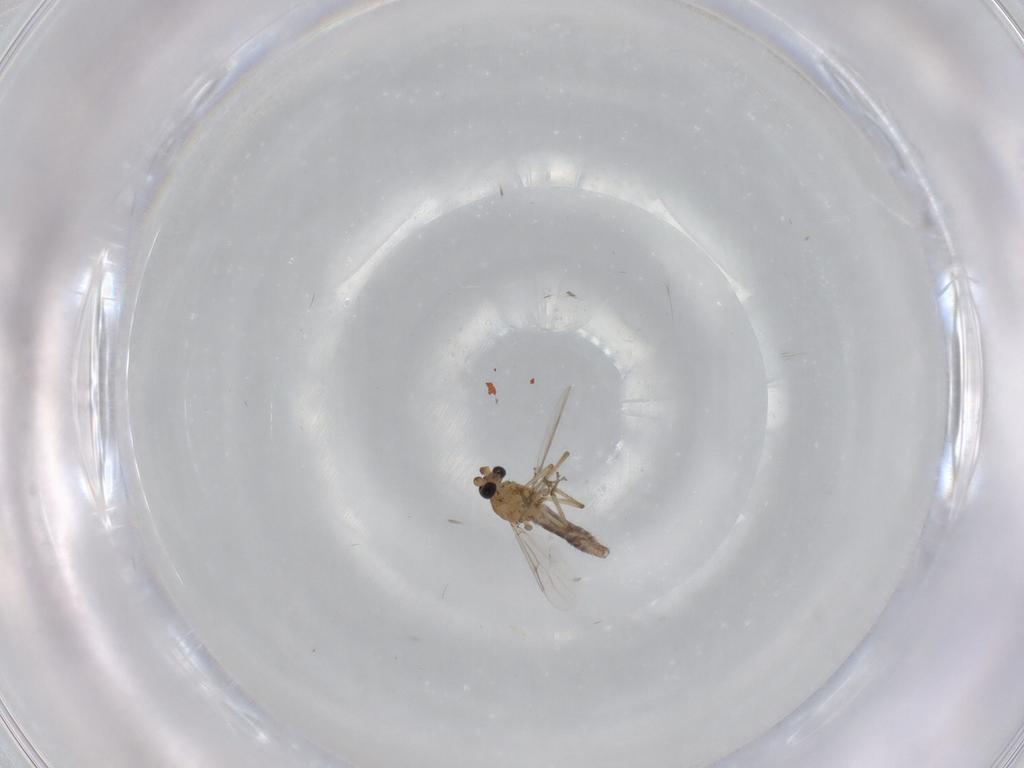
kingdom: Animalia
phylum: Arthropoda
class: Insecta
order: Diptera
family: Ceratopogonidae
